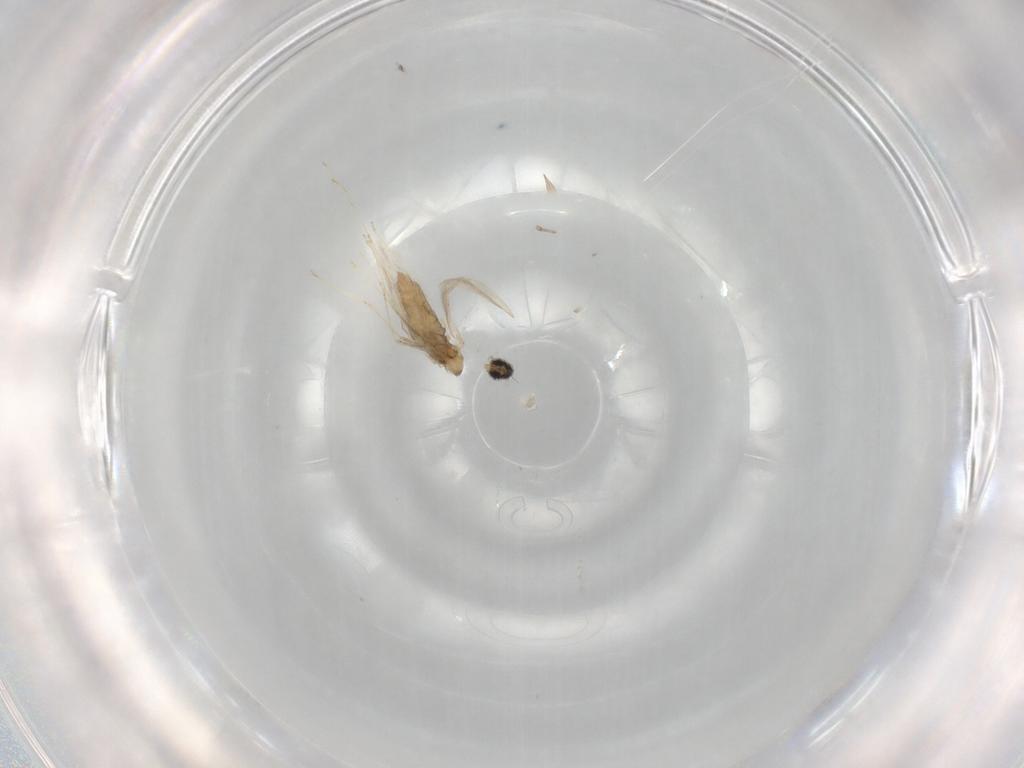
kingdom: Animalia
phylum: Arthropoda
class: Insecta
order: Diptera
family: Cecidomyiidae
